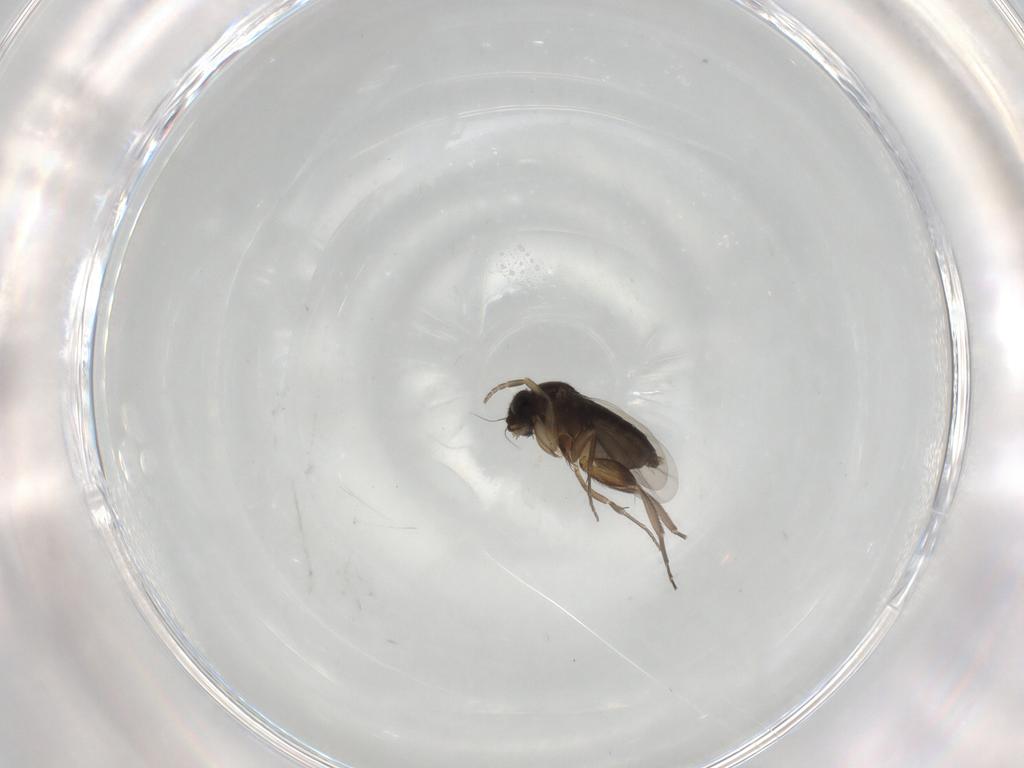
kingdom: Animalia
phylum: Arthropoda
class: Insecta
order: Diptera
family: Phoridae
